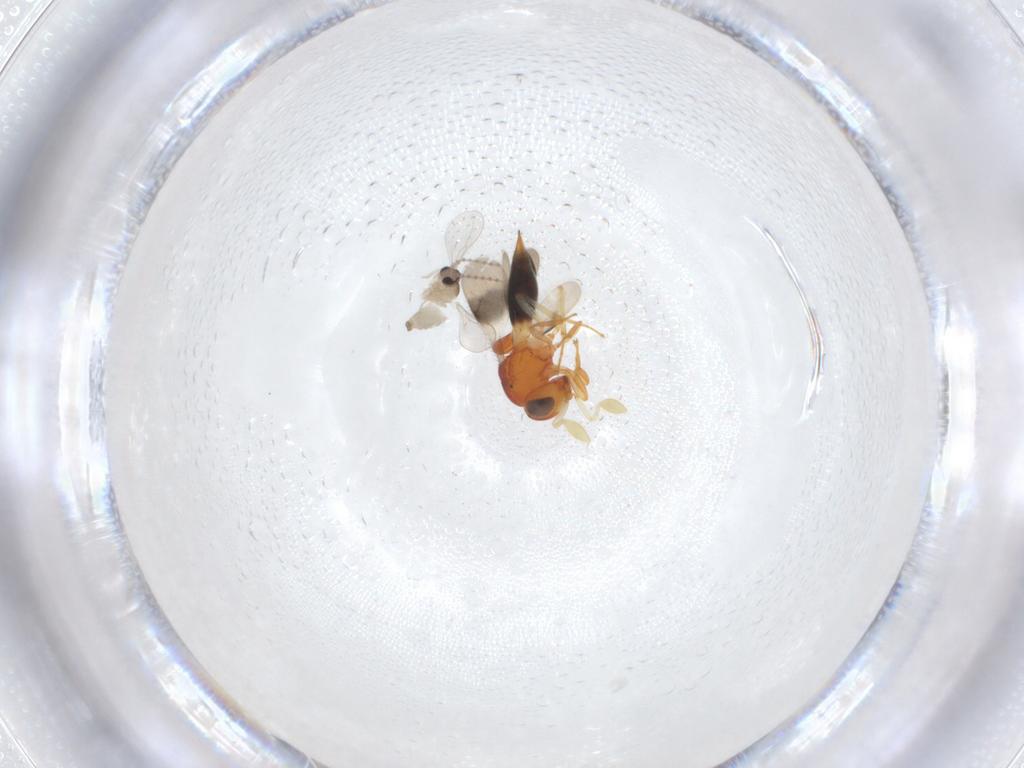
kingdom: Animalia
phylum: Arthropoda
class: Insecta
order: Diptera
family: Cecidomyiidae
